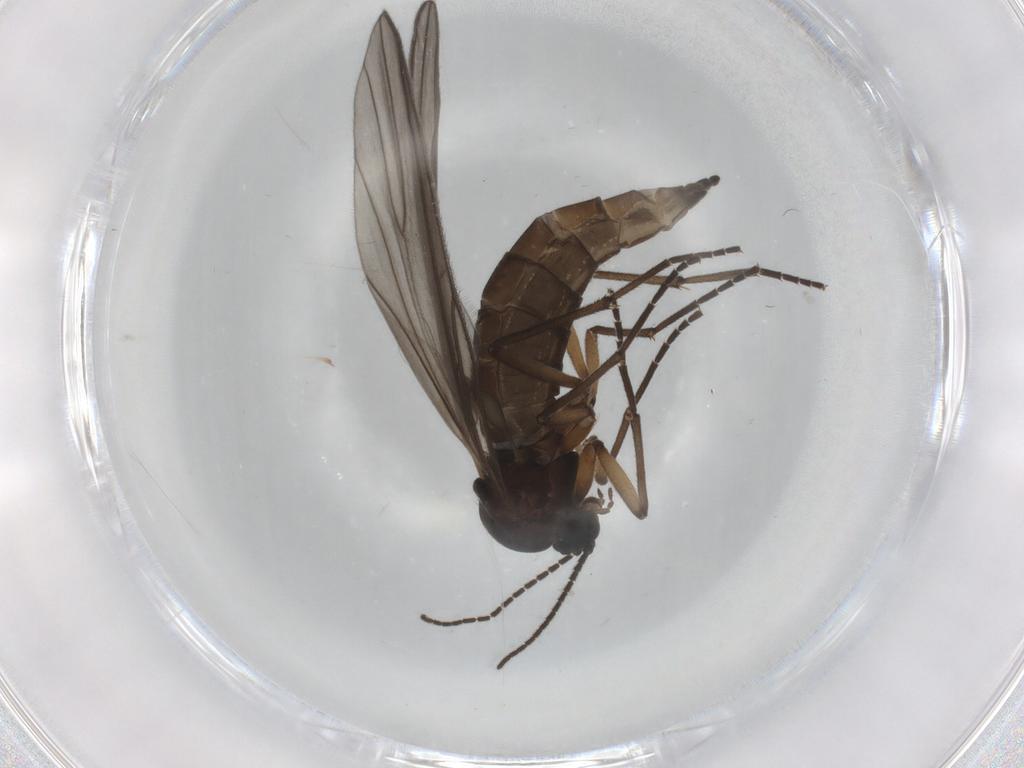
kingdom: Animalia
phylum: Arthropoda
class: Insecta
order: Diptera
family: Sciaridae
